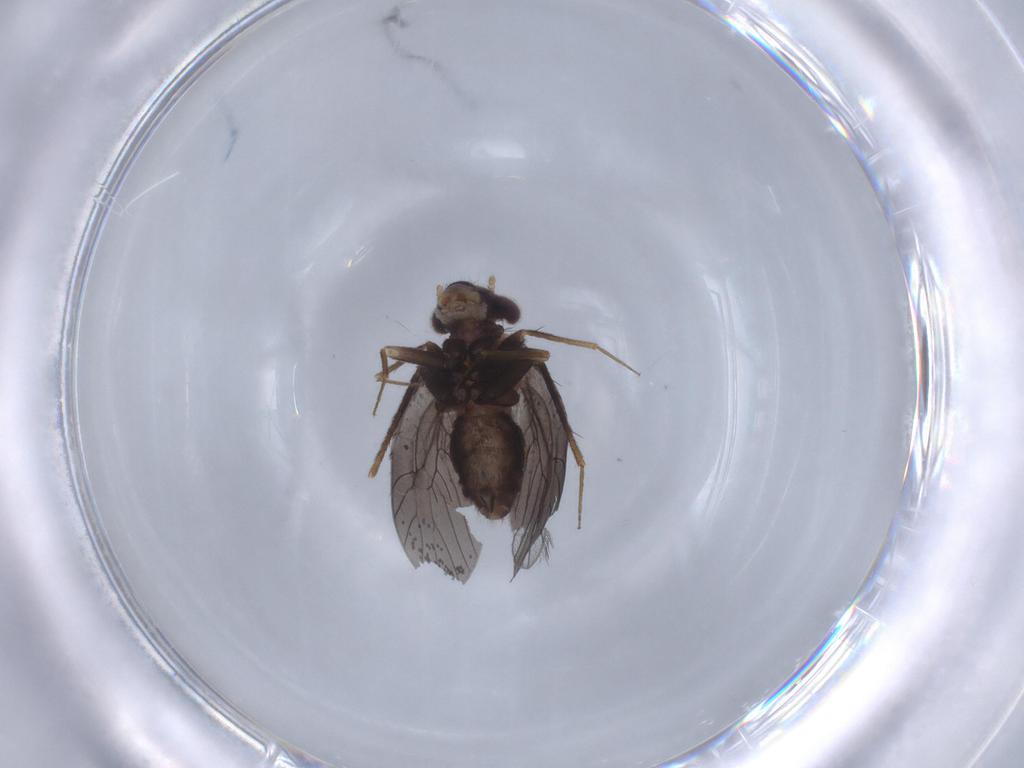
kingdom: Animalia
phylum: Arthropoda
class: Insecta
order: Psocodea
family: Lepidopsocidae
